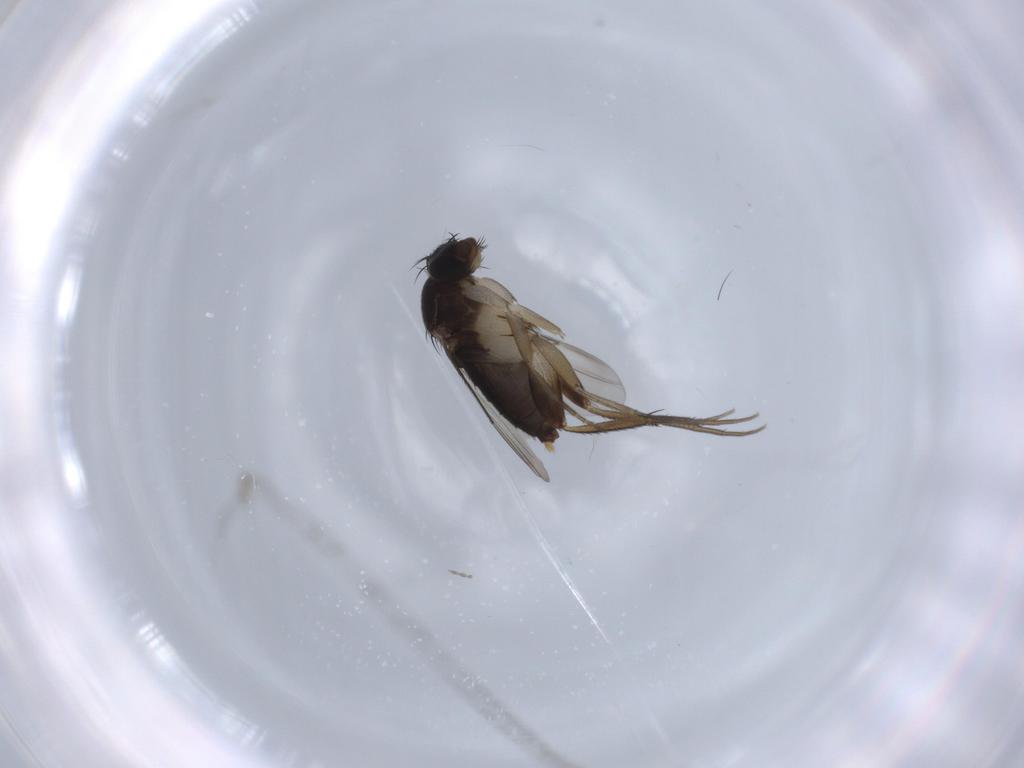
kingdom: Animalia
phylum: Arthropoda
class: Insecta
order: Diptera
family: Phoridae
